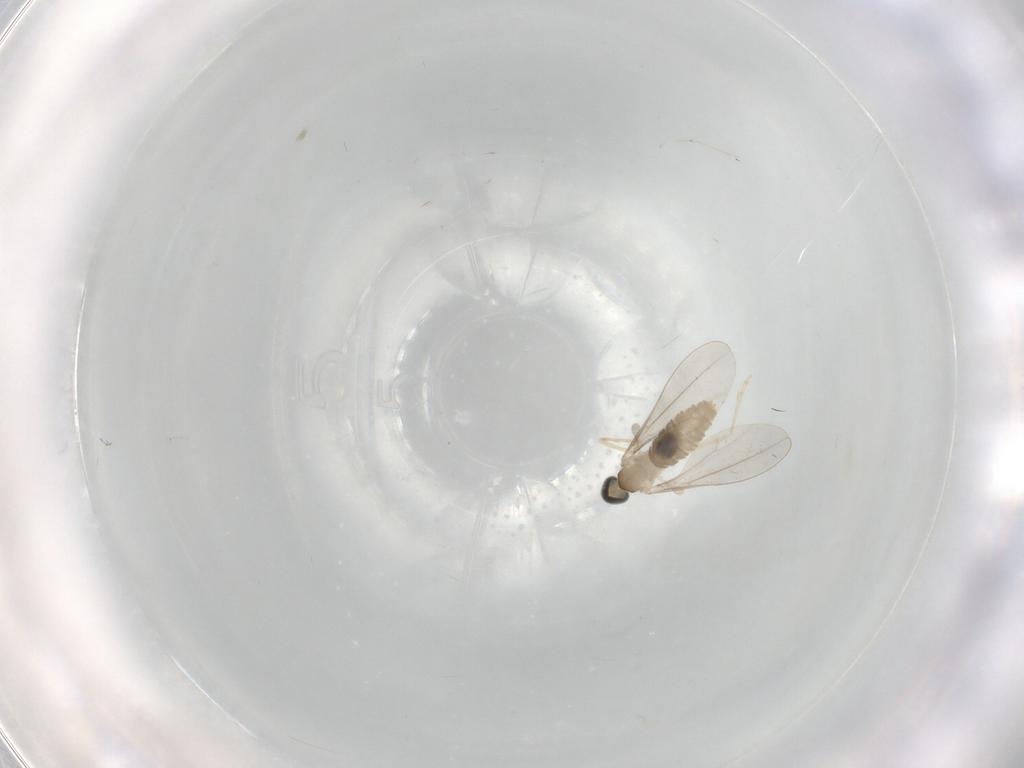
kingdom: Animalia
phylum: Arthropoda
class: Insecta
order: Diptera
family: Dolichopodidae
